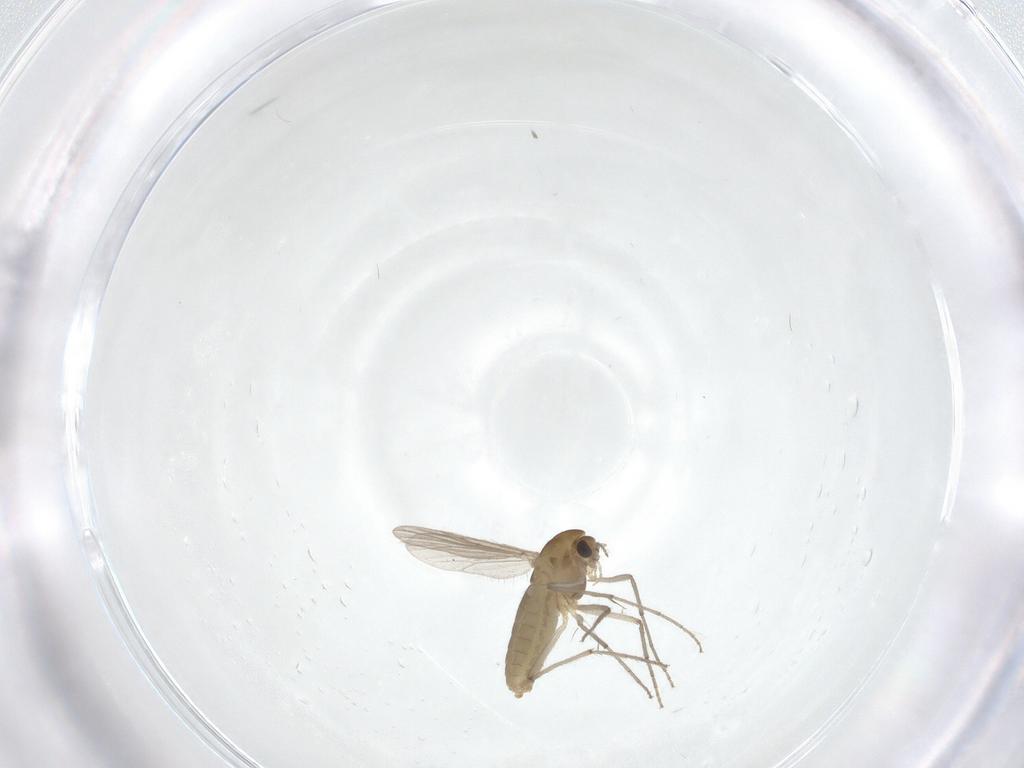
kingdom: Animalia
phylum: Arthropoda
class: Insecta
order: Diptera
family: Chironomidae
